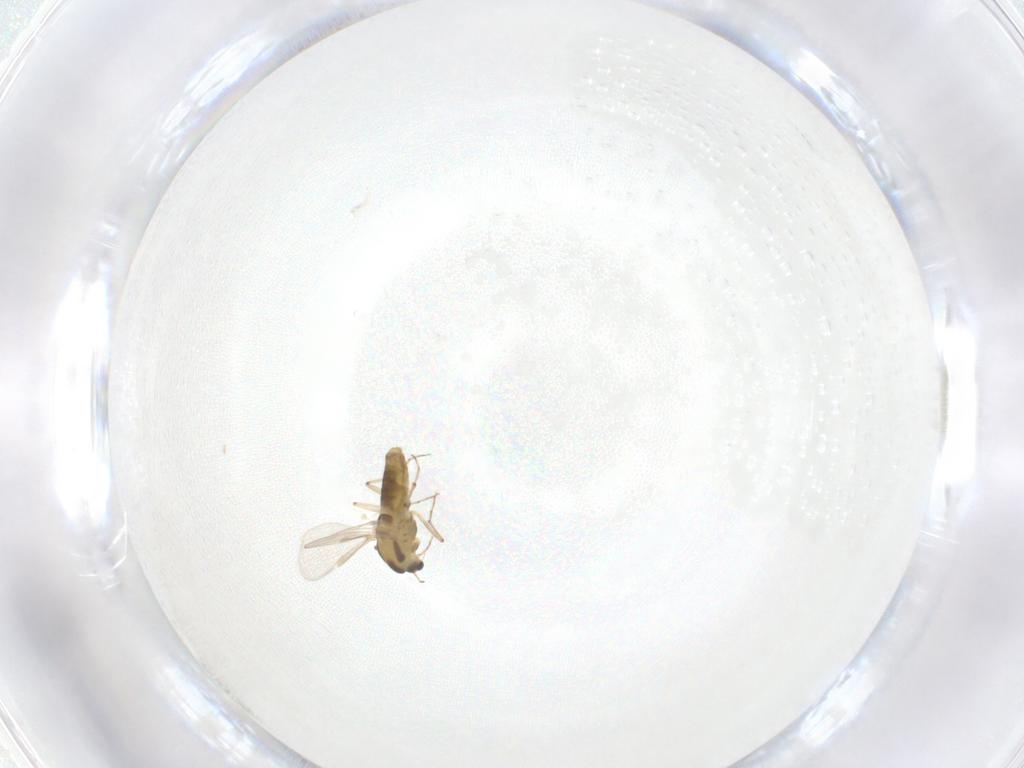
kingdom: Animalia
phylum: Arthropoda
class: Insecta
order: Diptera
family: Chironomidae
